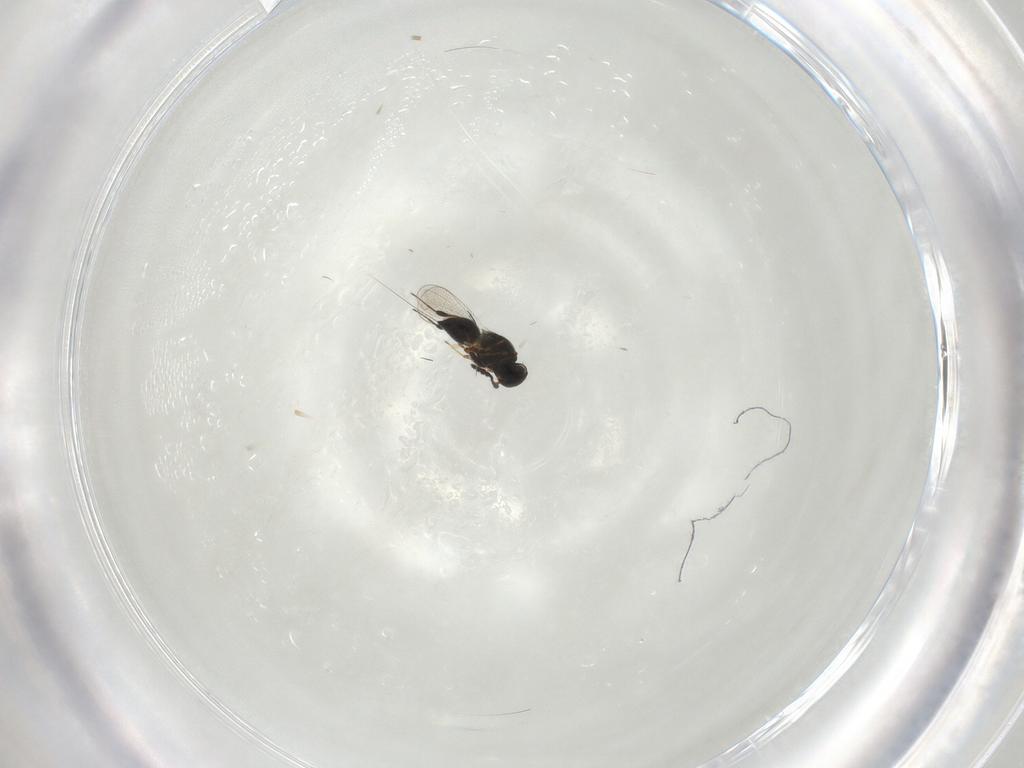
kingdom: Animalia
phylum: Arthropoda
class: Insecta
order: Hymenoptera
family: Platygastridae
